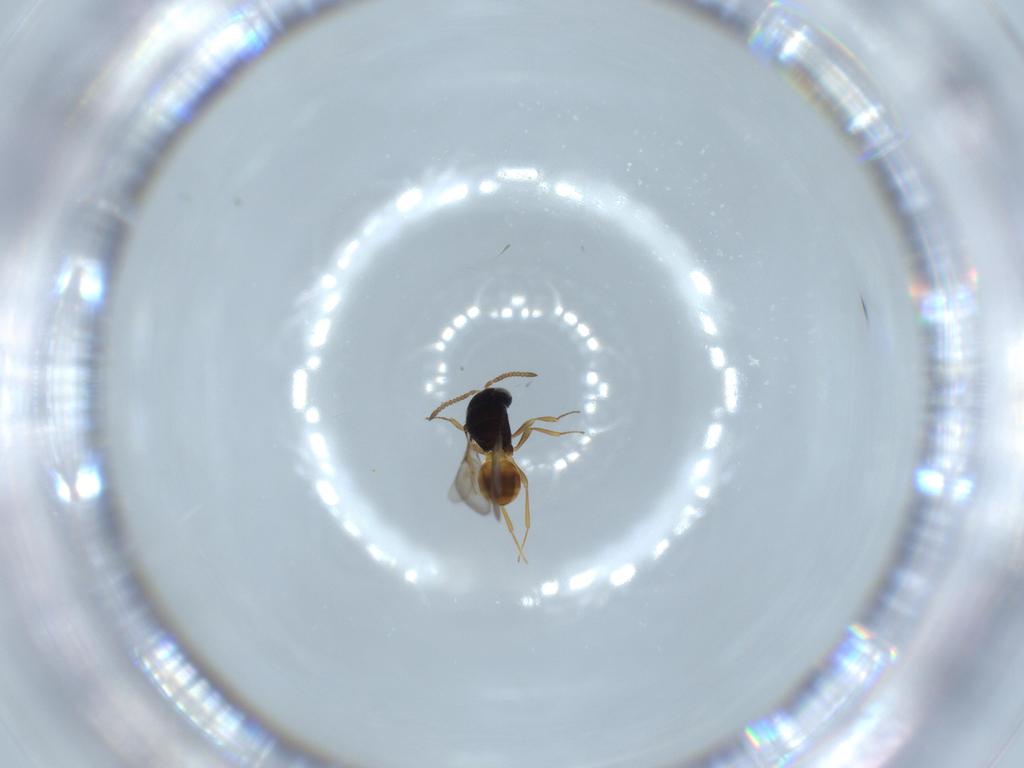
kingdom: Animalia
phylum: Arthropoda
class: Insecta
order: Hymenoptera
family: Scelionidae
